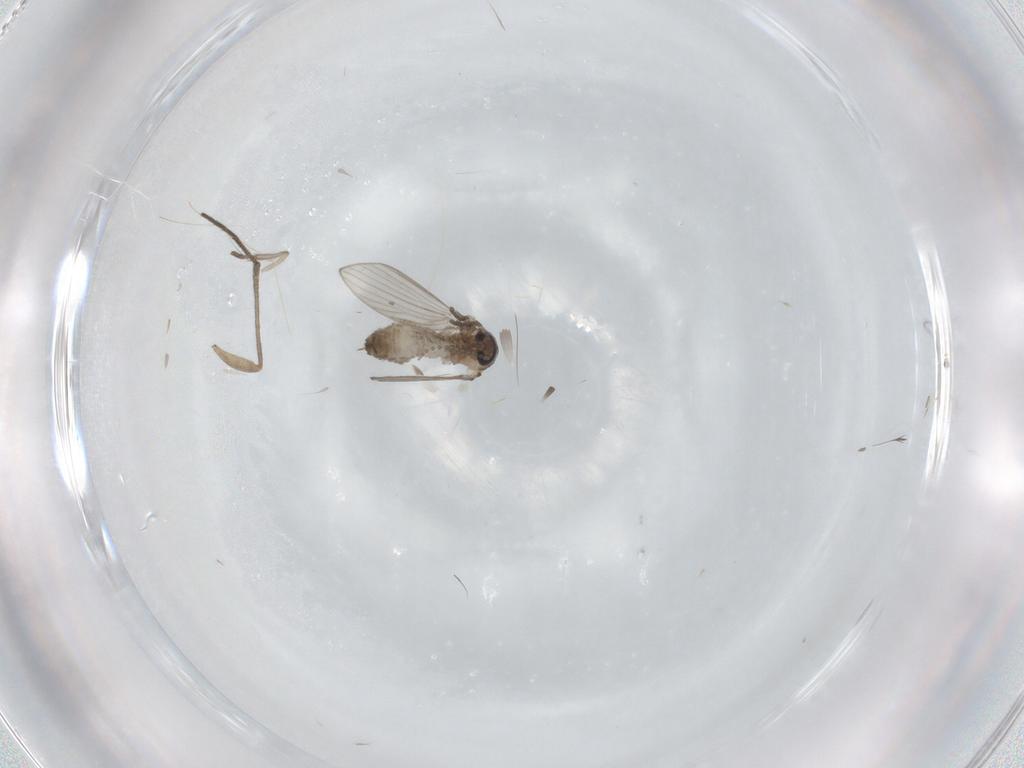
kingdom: Animalia
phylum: Arthropoda
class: Insecta
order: Diptera
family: Psychodidae
